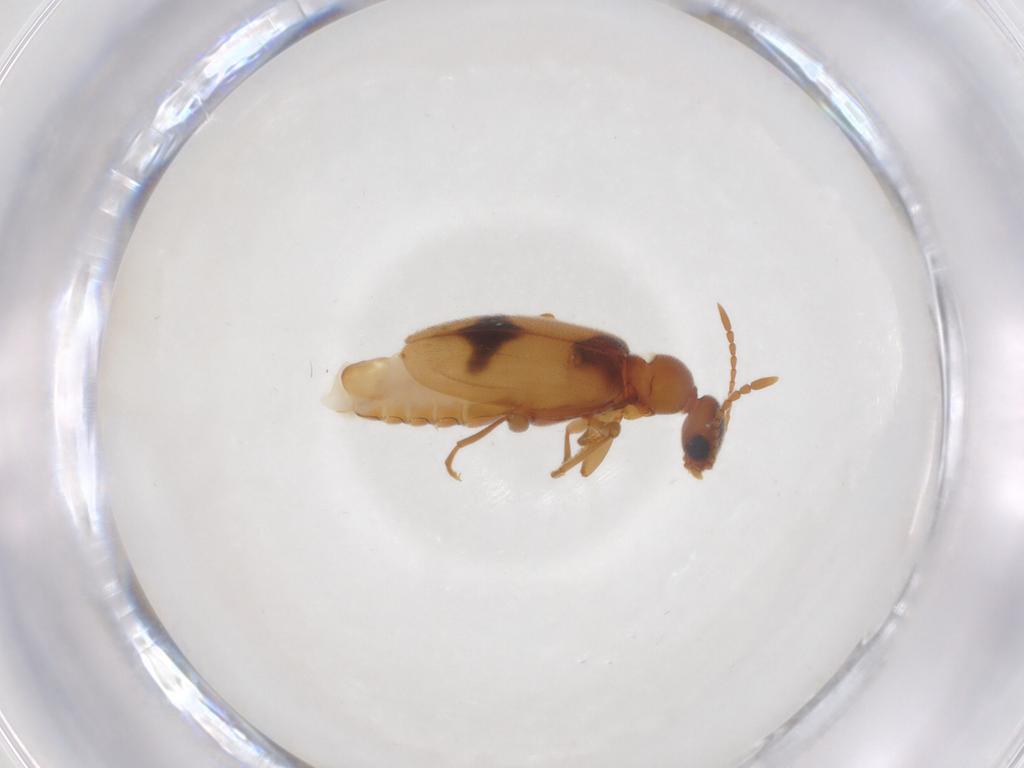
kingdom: Animalia
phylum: Arthropoda
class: Insecta
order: Coleoptera
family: Anthicidae
